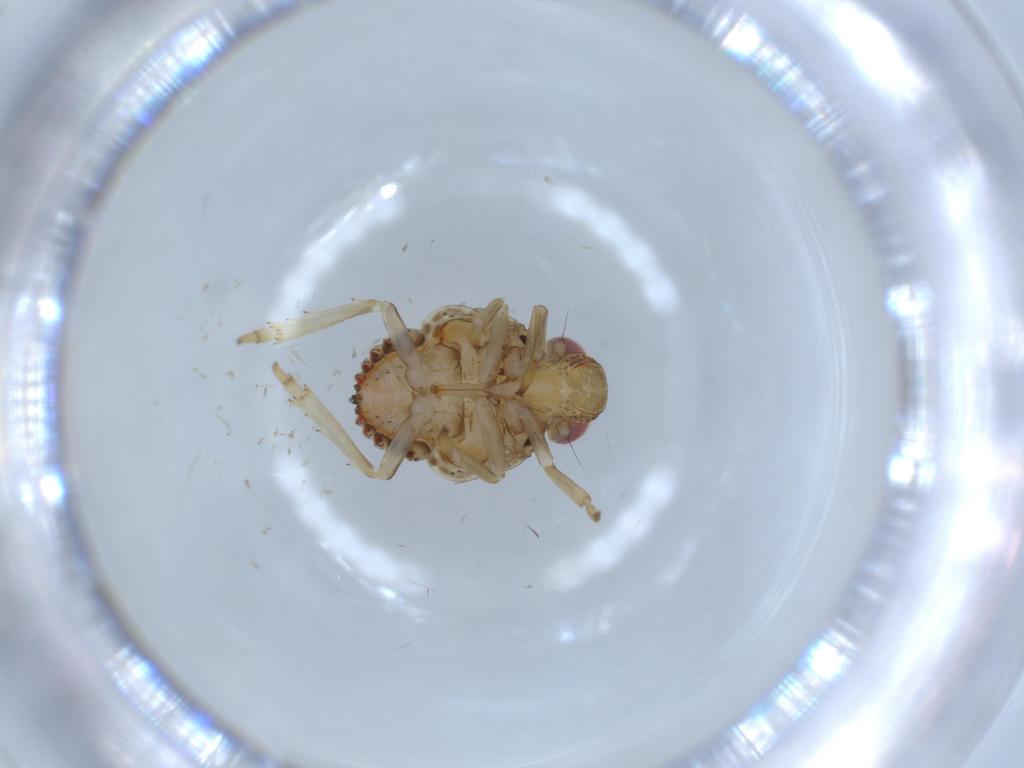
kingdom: Animalia
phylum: Arthropoda
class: Insecta
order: Hemiptera
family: Issidae
